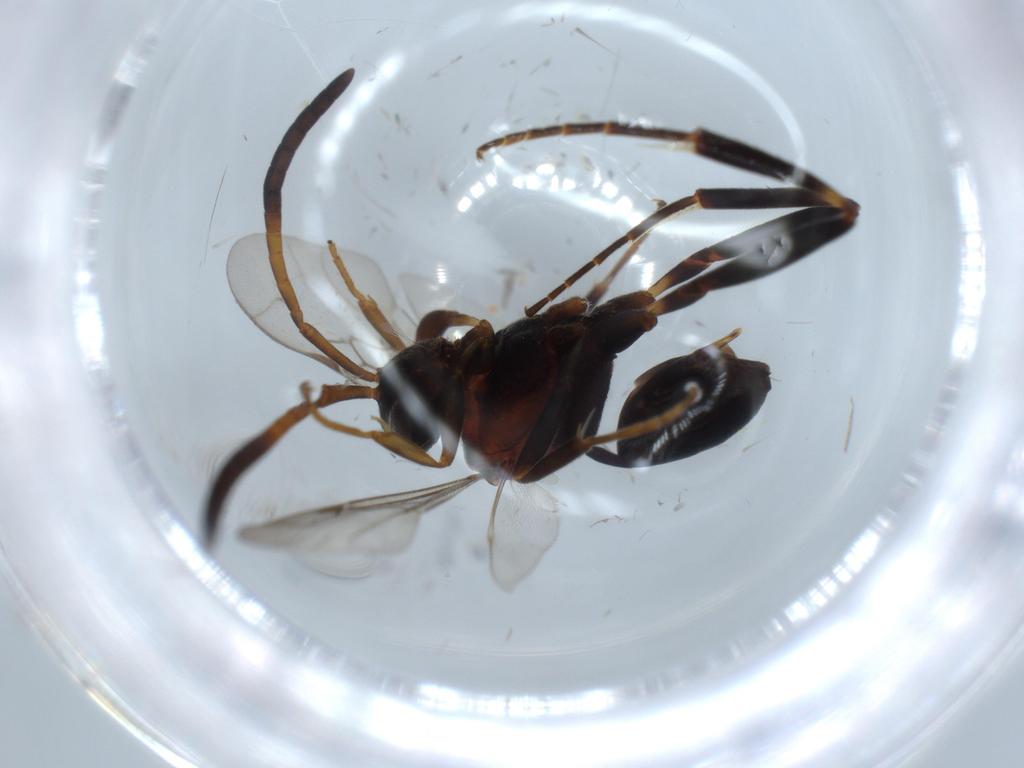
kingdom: Animalia
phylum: Arthropoda
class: Insecta
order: Hymenoptera
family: Evaniidae
